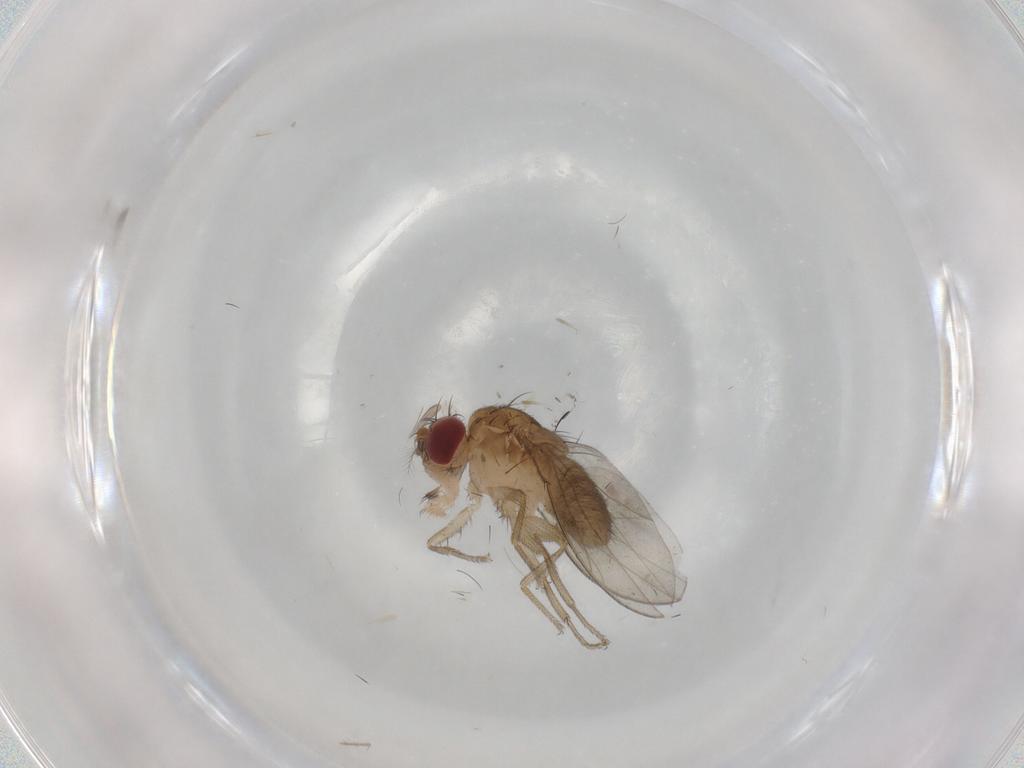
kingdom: Animalia
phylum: Arthropoda
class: Insecta
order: Diptera
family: Drosophilidae
